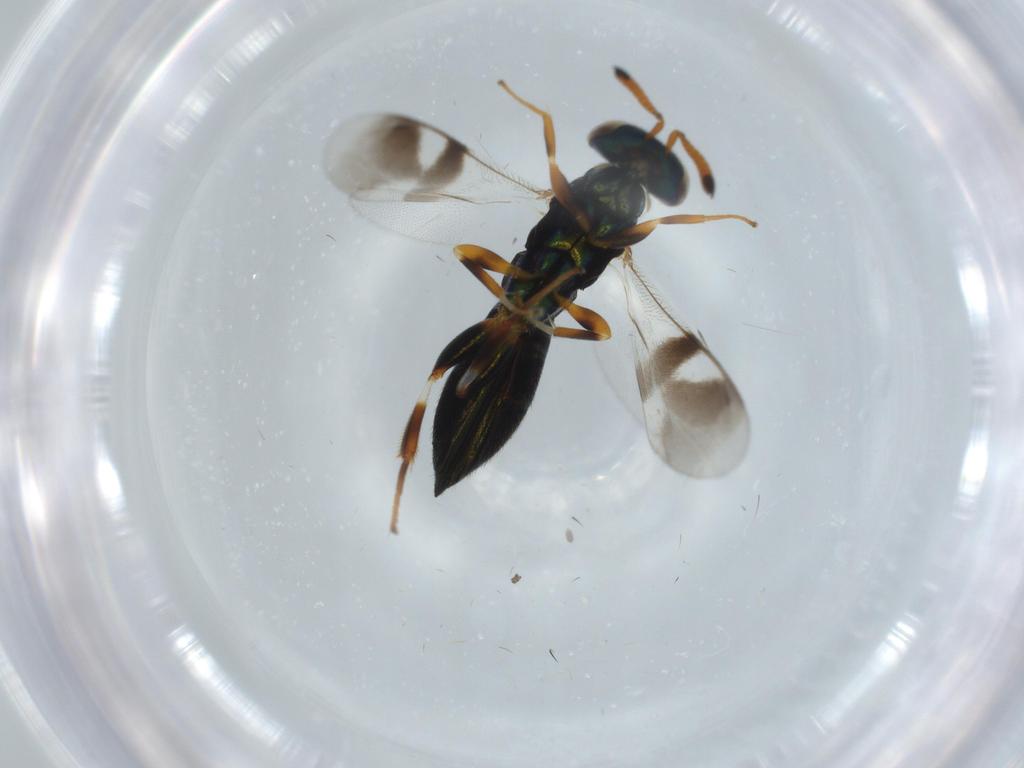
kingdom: Animalia
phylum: Arthropoda
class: Insecta
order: Hymenoptera
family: Cleonyminae
